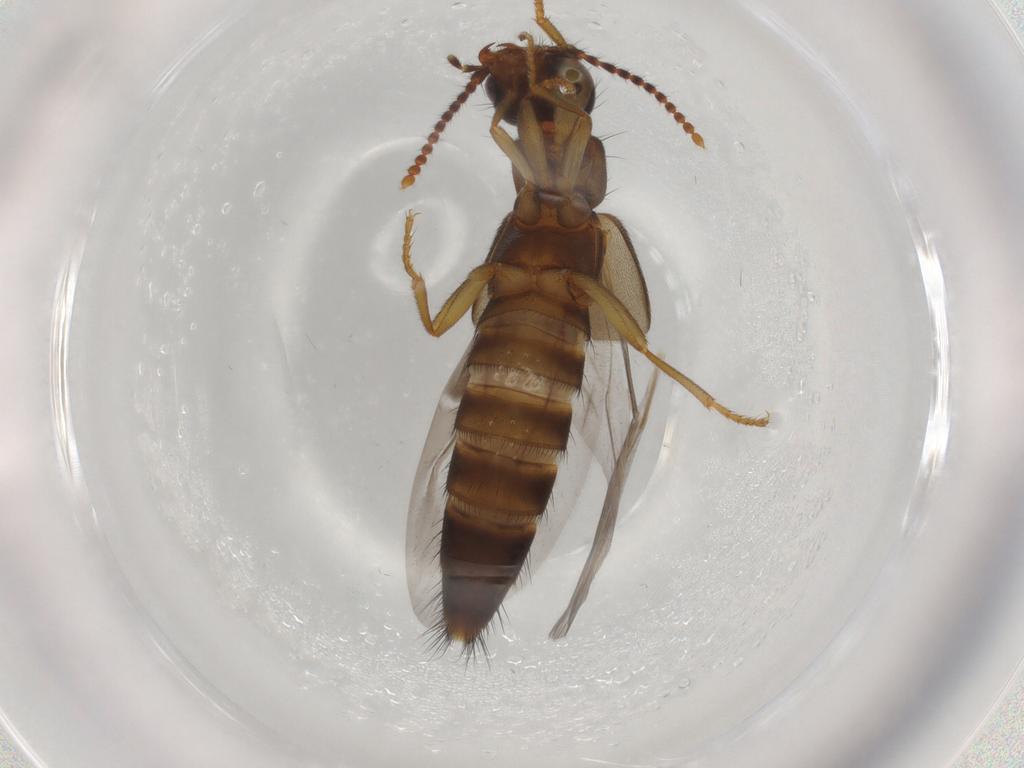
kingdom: Animalia
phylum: Arthropoda
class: Insecta
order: Coleoptera
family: Staphylinidae
